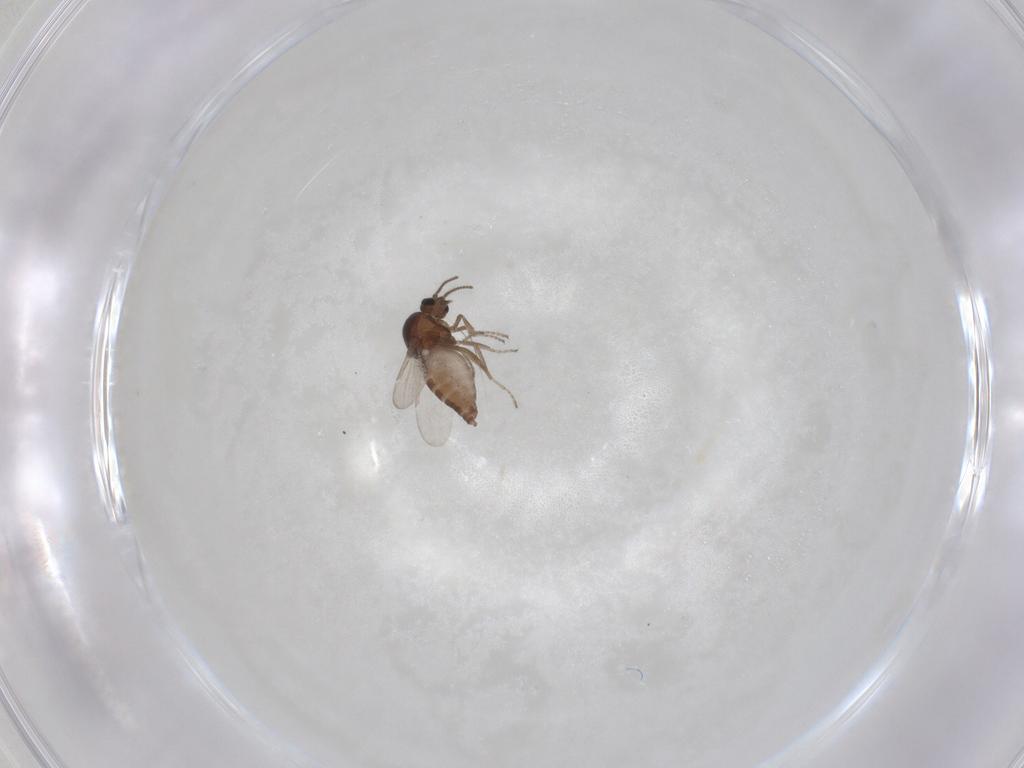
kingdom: Animalia
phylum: Arthropoda
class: Insecta
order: Diptera
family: Ceratopogonidae
